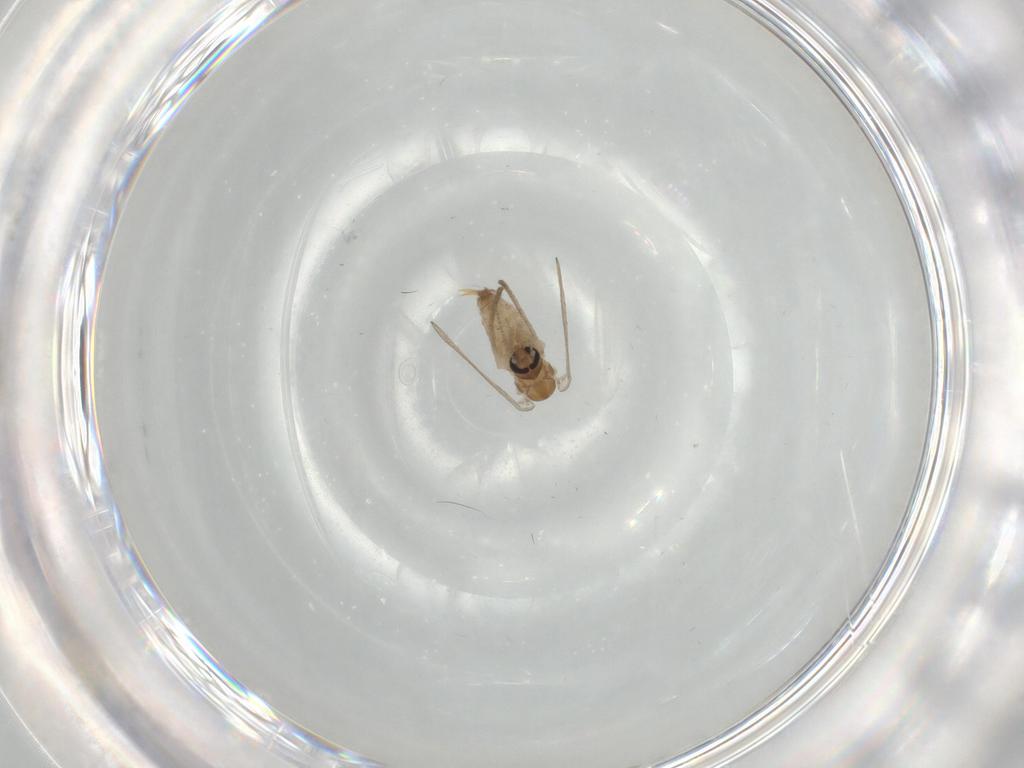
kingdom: Animalia
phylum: Arthropoda
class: Insecta
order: Diptera
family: Psychodidae
